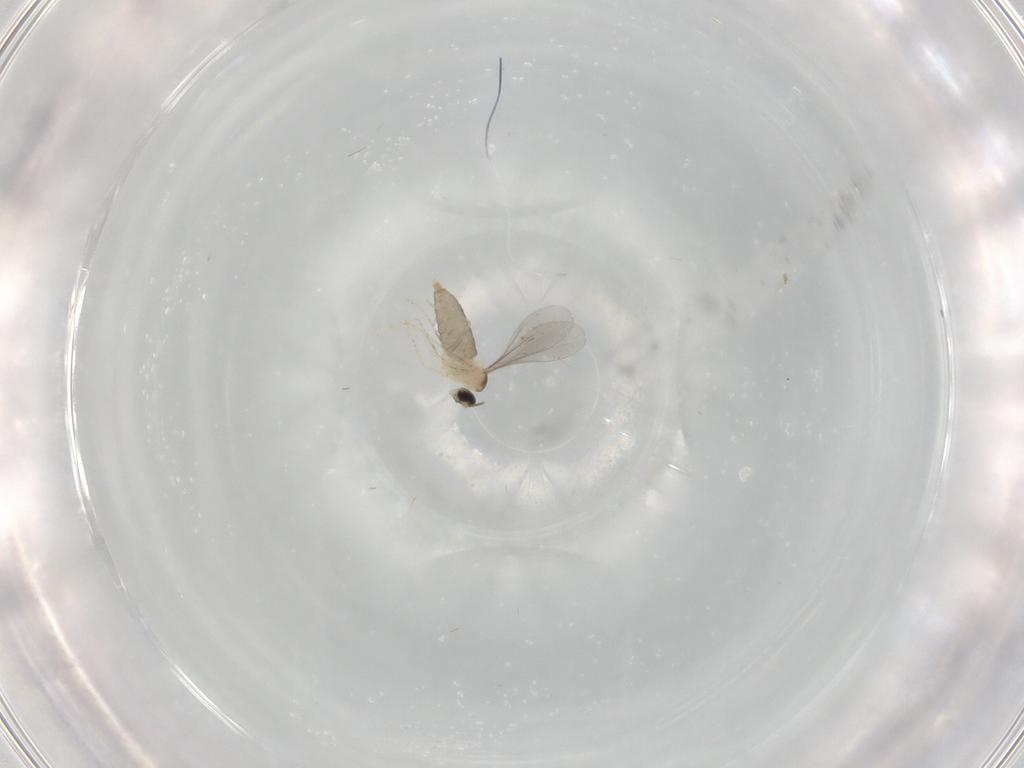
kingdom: Animalia
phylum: Arthropoda
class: Insecta
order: Diptera
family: Cecidomyiidae
